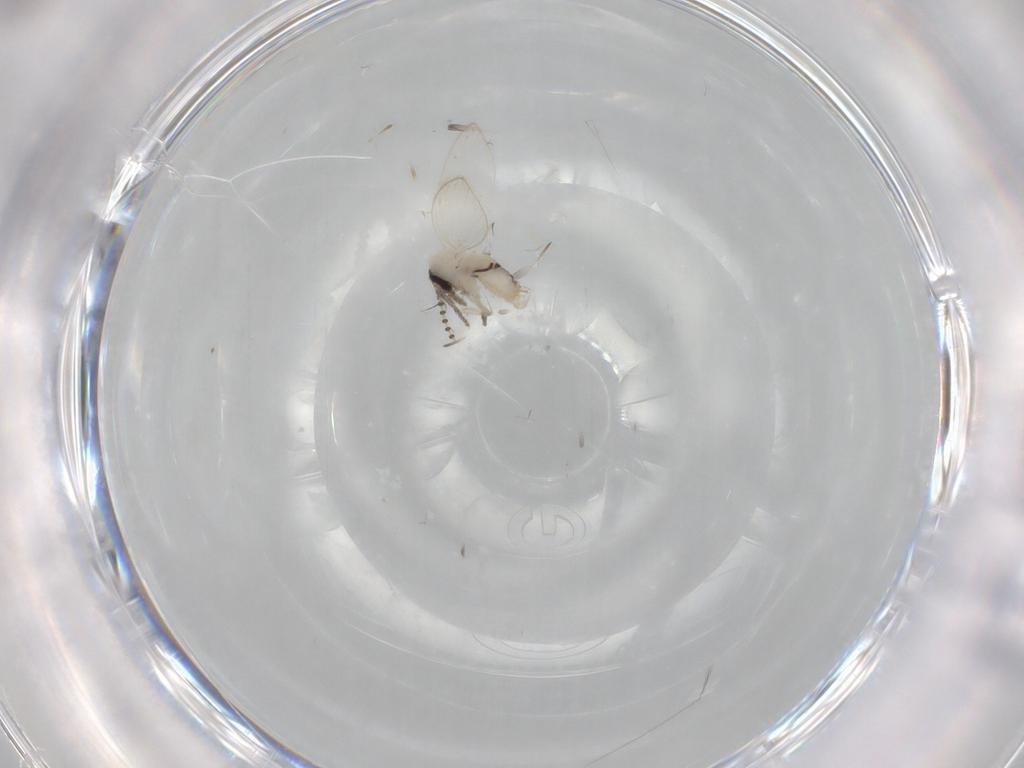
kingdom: Animalia
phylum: Arthropoda
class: Insecta
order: Diptera
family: Psychodidae
